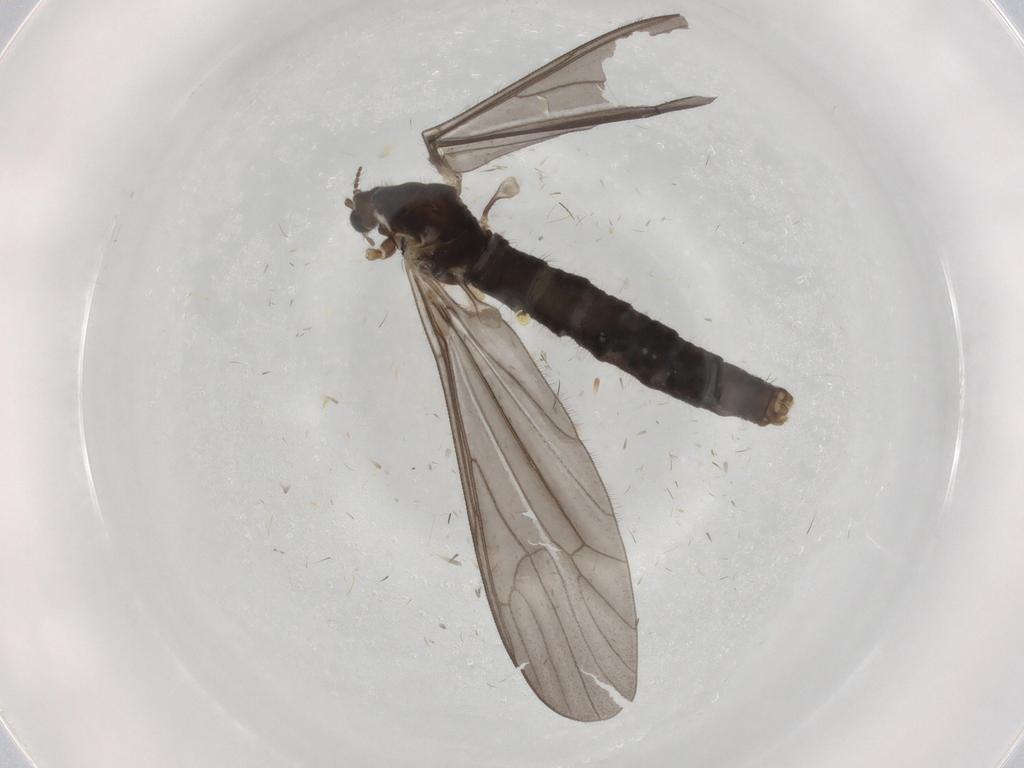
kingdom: Animalia
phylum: Arthropoda
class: Insecta
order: Diptera
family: Limoniidae
